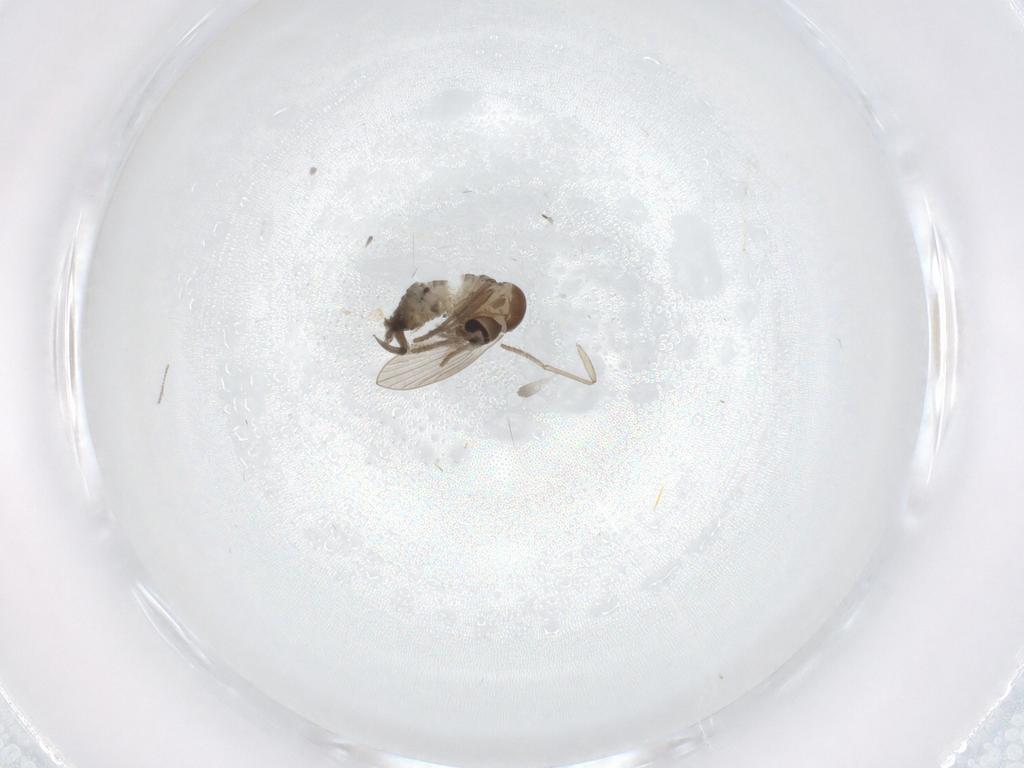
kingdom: Animalia
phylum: Arthropoda
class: Insecta
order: Diptera
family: Psychodidae
